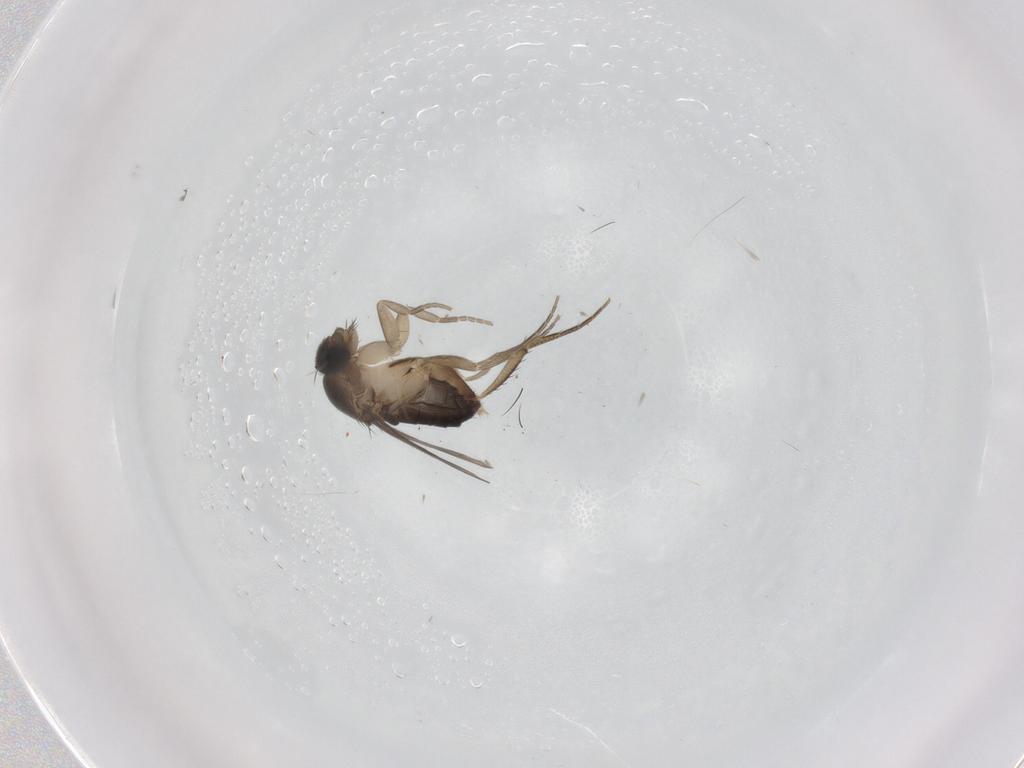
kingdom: Animalia
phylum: Arthropoda
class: Insecta
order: Diptera
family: Phoridae
